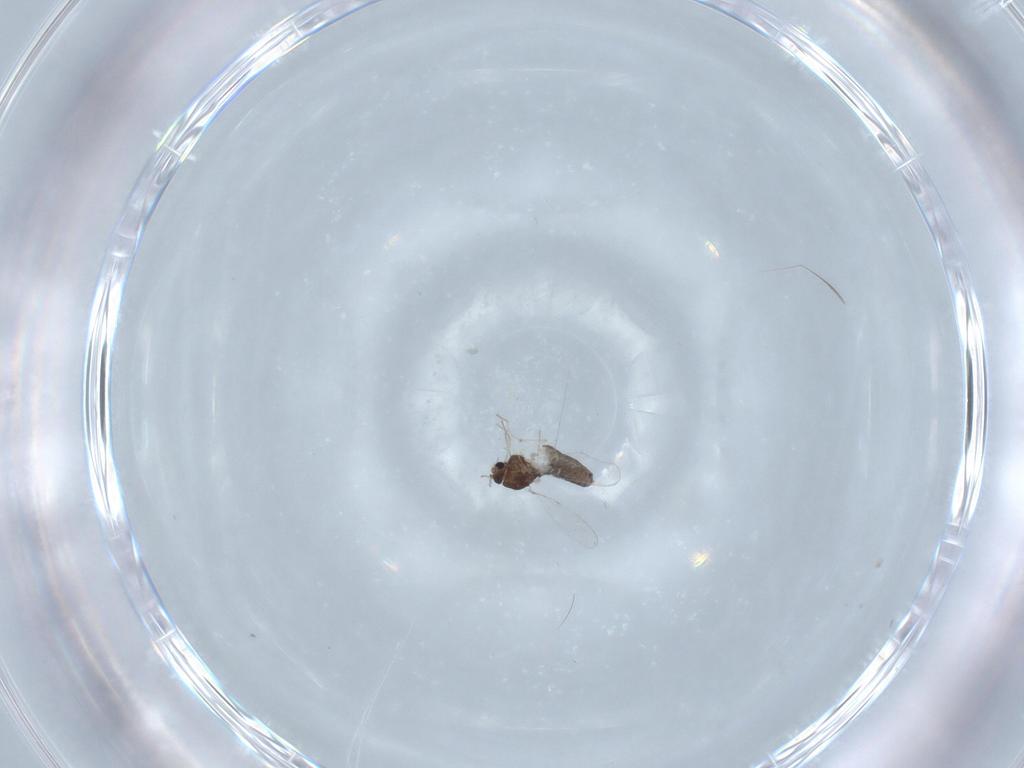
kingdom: Animalia
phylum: Arthropoda
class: Insecta
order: Diptera
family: Chironomidae
